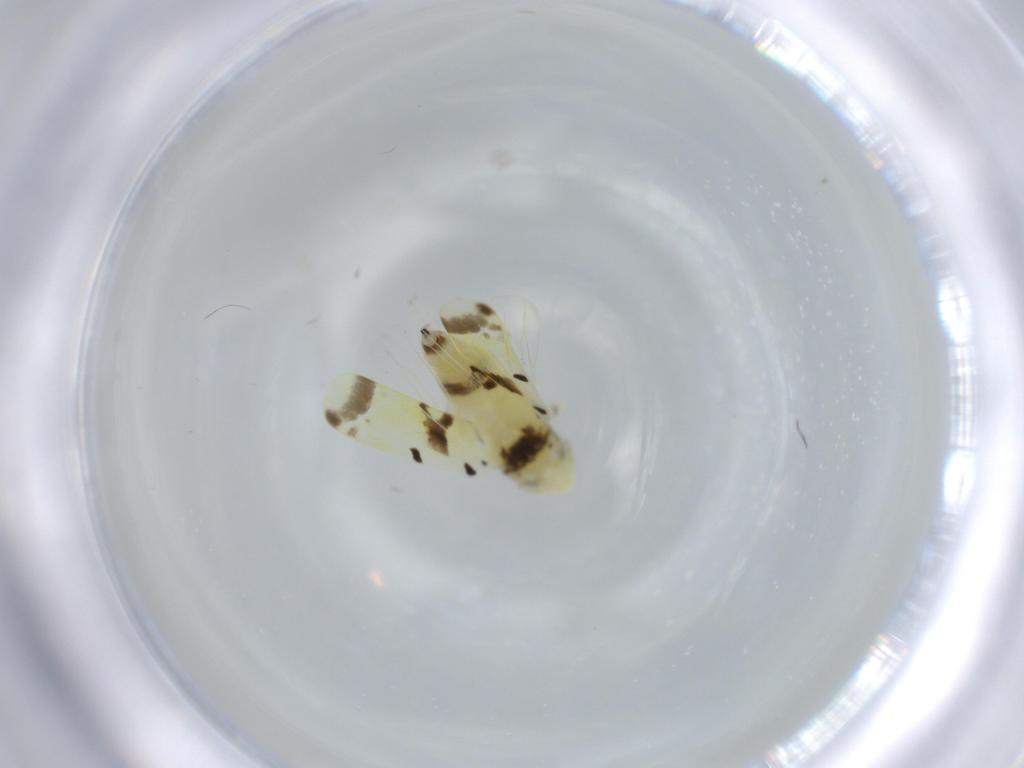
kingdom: Animalia
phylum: Arthropoda
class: Insecta
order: Hemiptera
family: Cicadellidae
